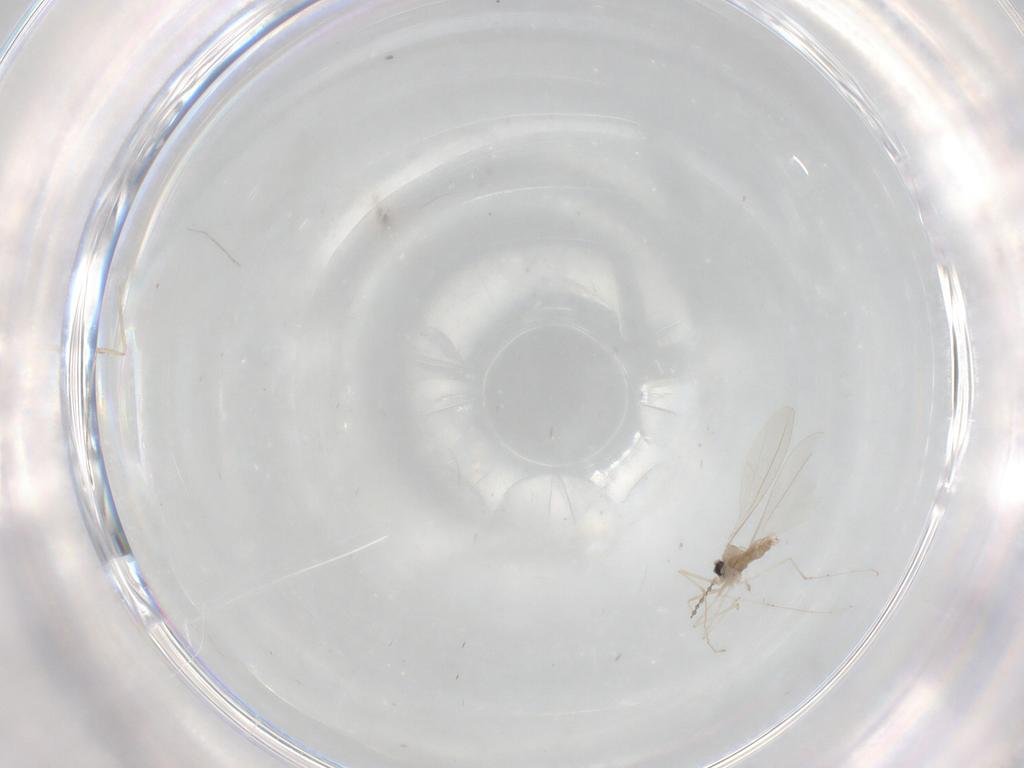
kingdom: Animalia
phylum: Arthropoda
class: Insecta
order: Diptera
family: Cecidomyiidae
